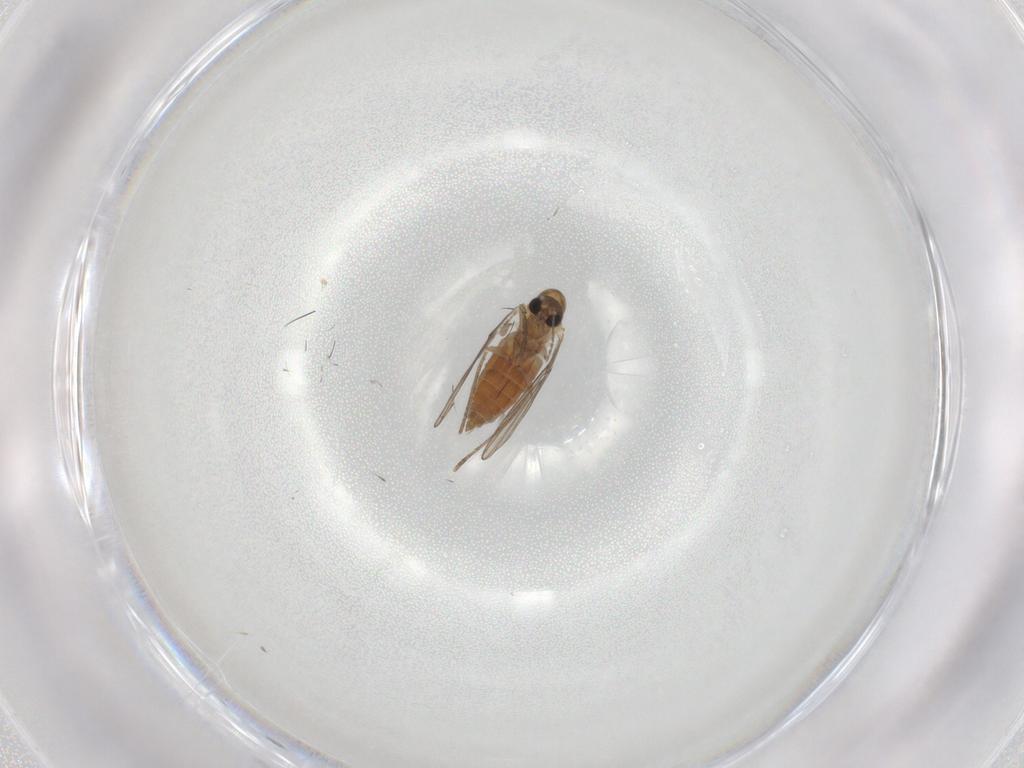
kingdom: Animalia
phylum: Arthropoda
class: Insecta
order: Diptera
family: Psychodidae
